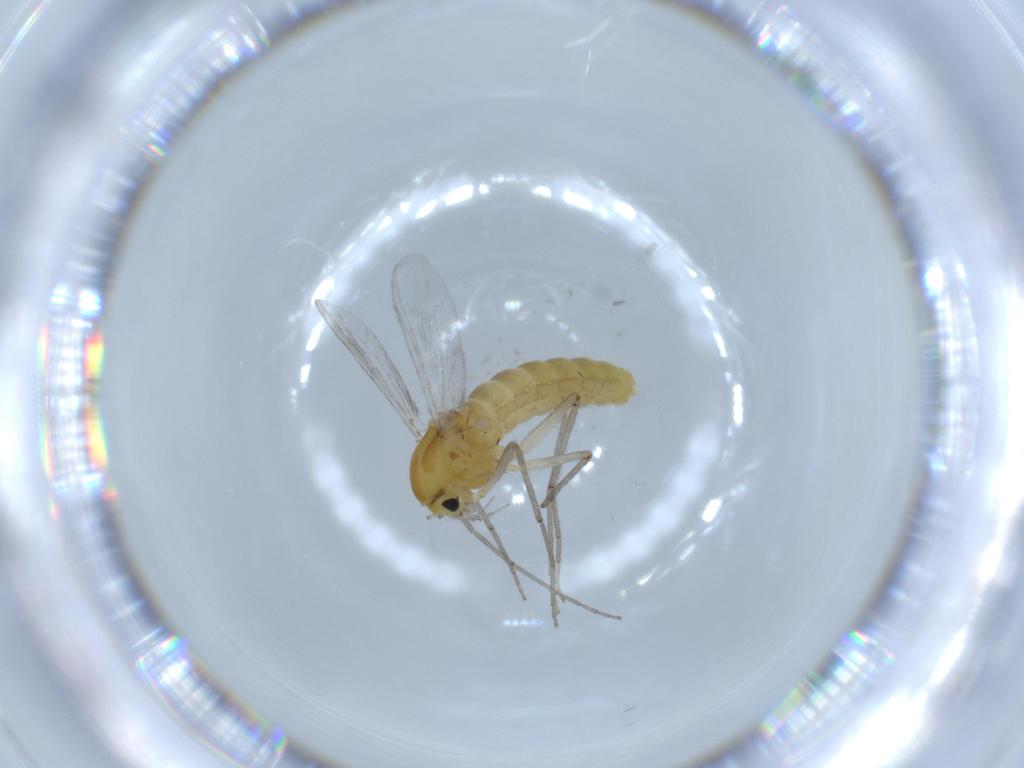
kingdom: Animalia
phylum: Arthropoda
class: Insecta
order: Diptera
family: Chironomidae
